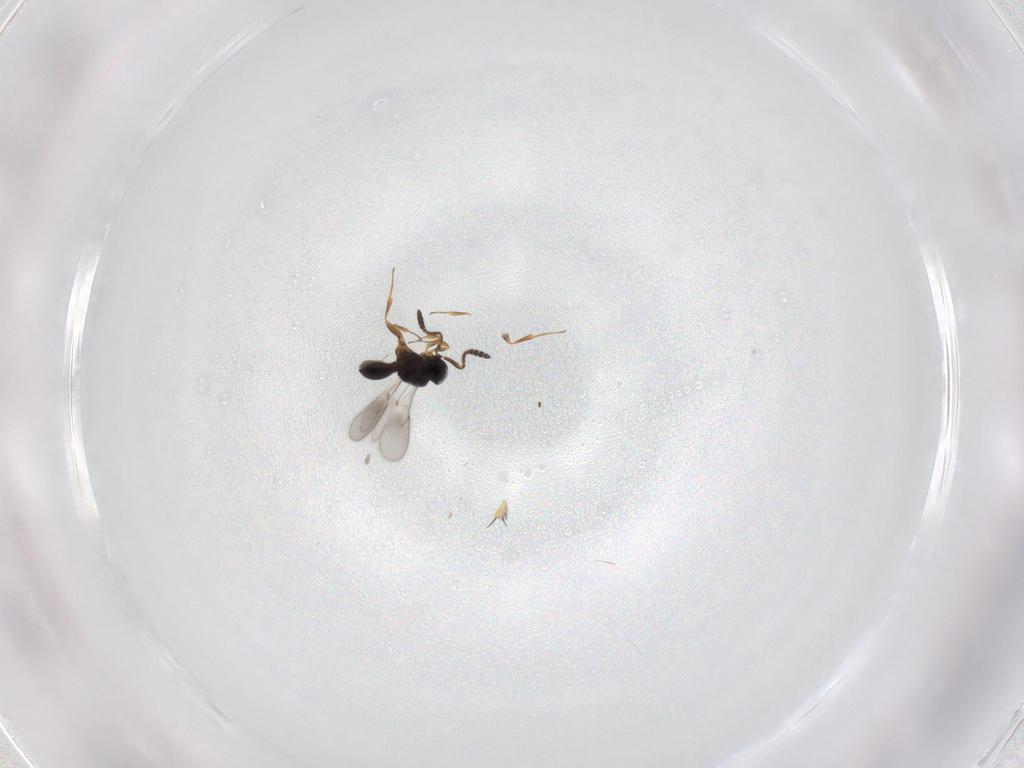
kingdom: Animalia
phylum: Arthropoda
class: Insecta
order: Hymenoptera
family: Scelionidae
